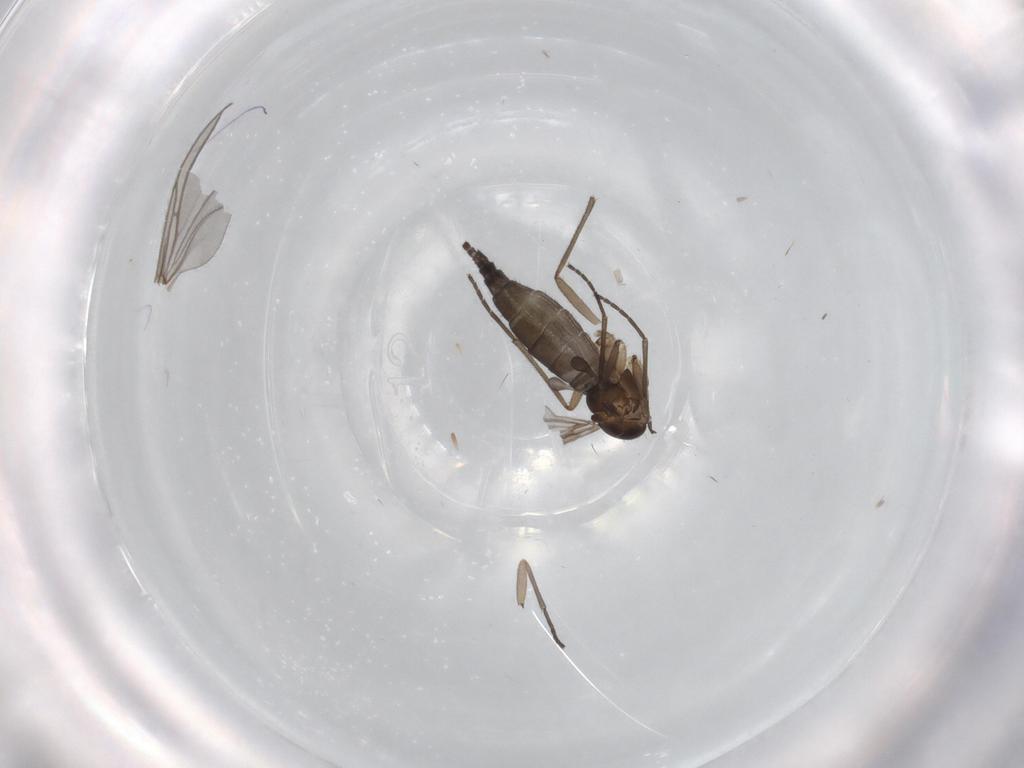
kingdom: Animalia
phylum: Arthropoda
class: Insecta
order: Diptera
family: Sciaridae
